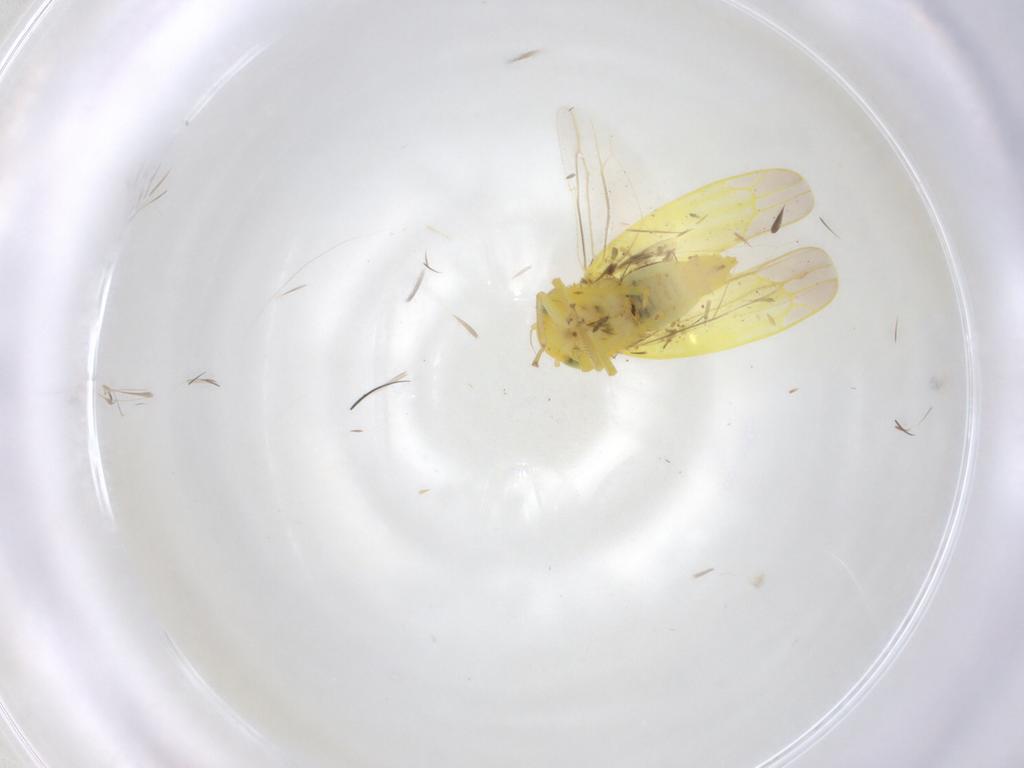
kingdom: Animalia
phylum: Arthropoda
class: Insecta
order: Hemiptera
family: Cicadellidae
